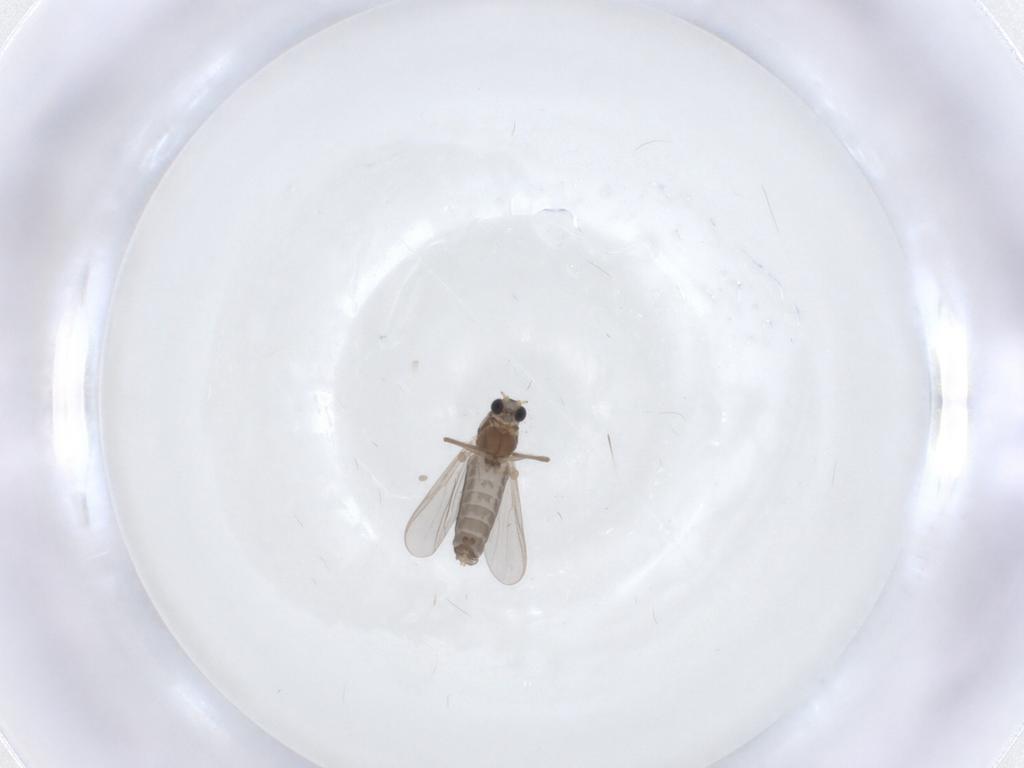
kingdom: Animalia
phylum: Arthropoda
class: Insecta
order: Diptera
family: Chironomidae
